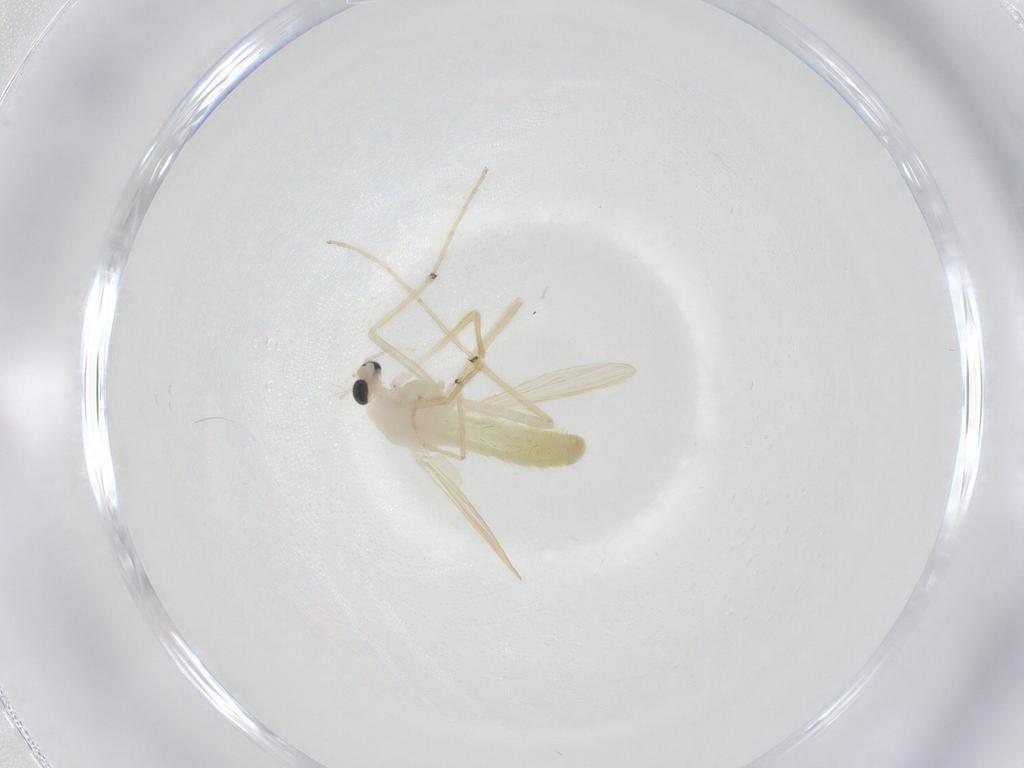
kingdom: Animalia
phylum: Arthropoda
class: Insecta
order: Diptera
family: Chironomidae
